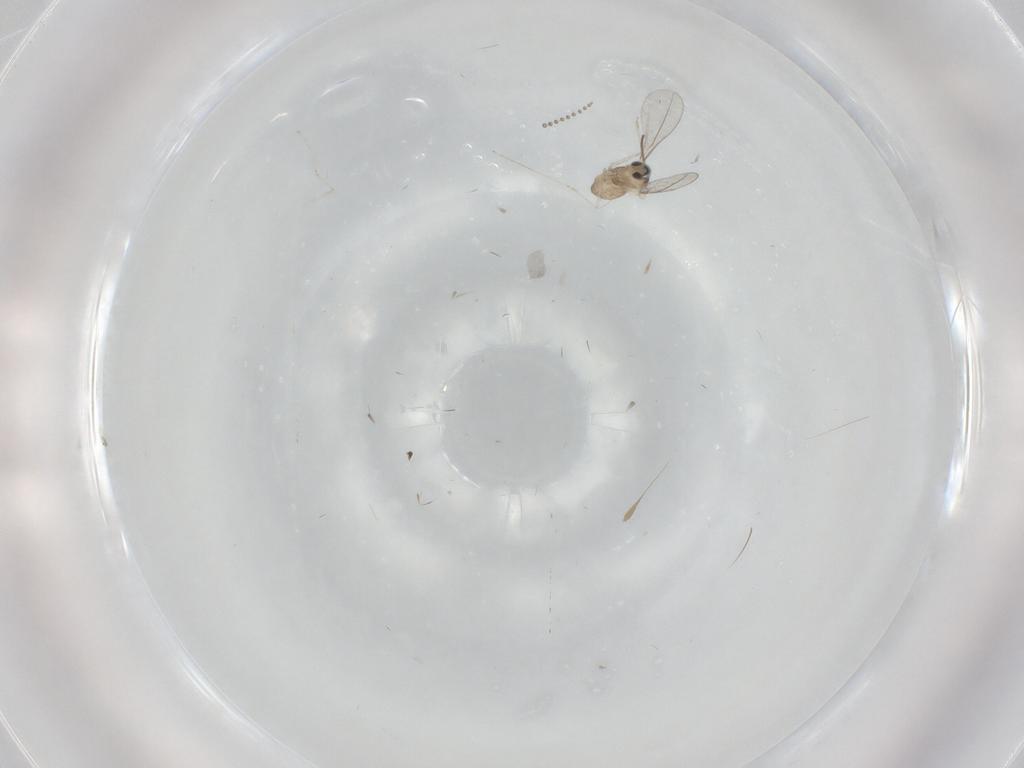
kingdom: Animalia
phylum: Arthropoda
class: Insecta
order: Diptera
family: Psychodidae
